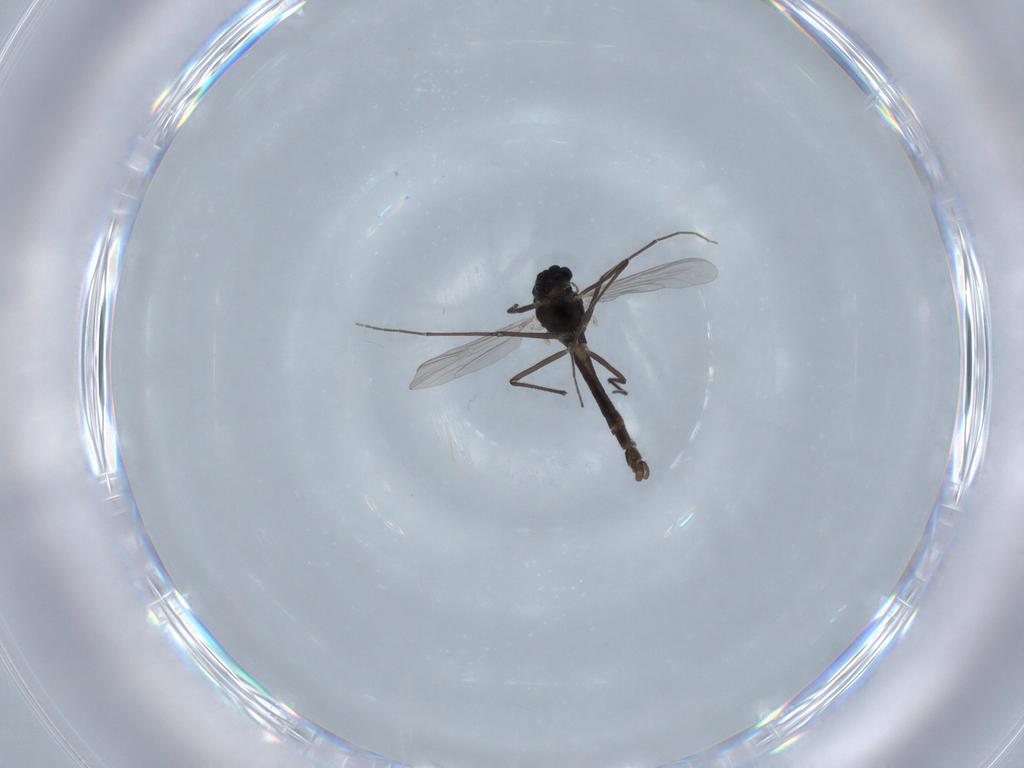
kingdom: Animalia
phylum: Arthropoda
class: Insecta
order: Diptera
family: Chironomidae
